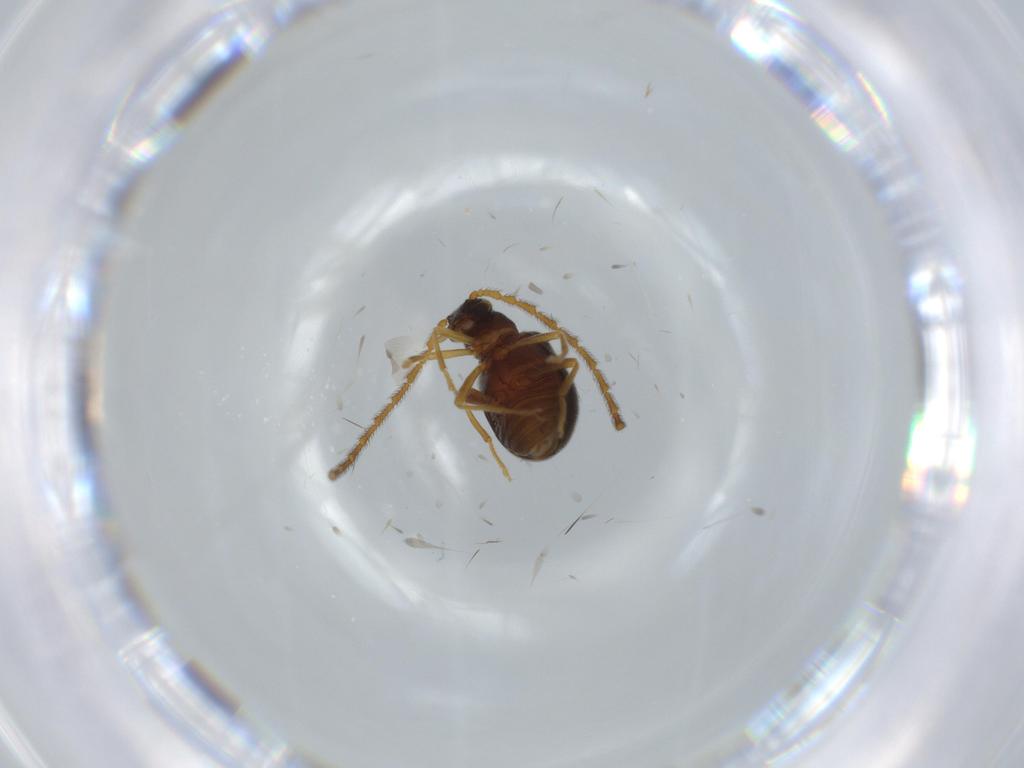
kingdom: Animalia
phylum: Arthropoda
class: Insecta
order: Coleoptera
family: Aderidae
